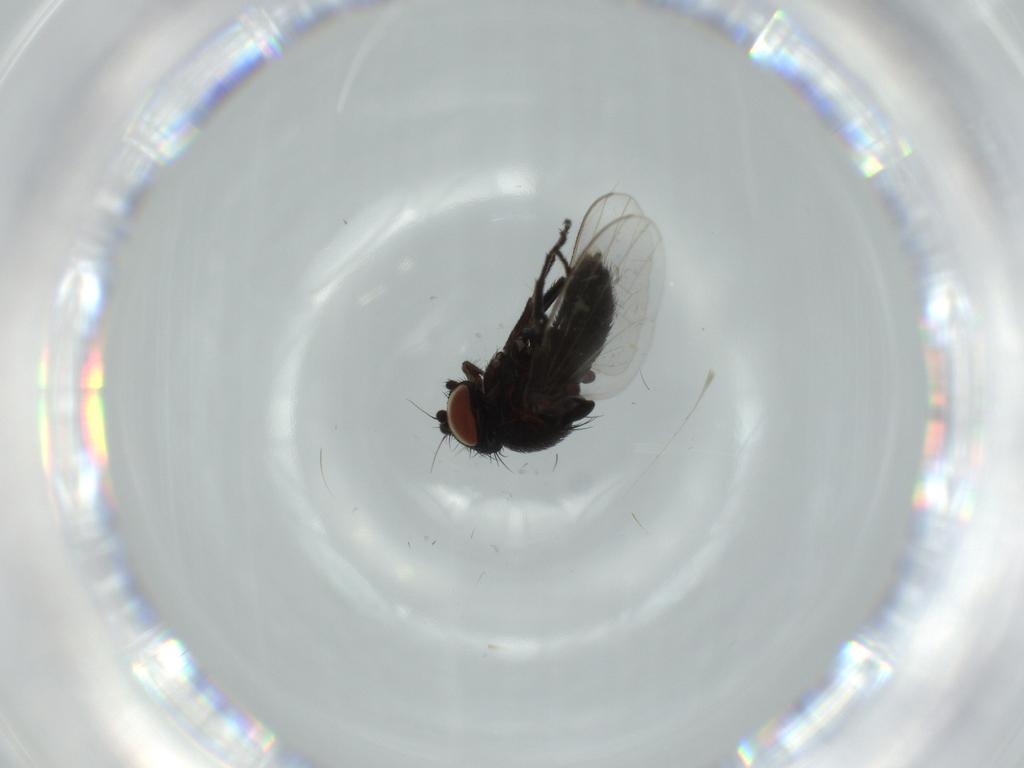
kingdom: Animalia
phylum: Arthropoda
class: Insecta
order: Diptera
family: Milichiidae
